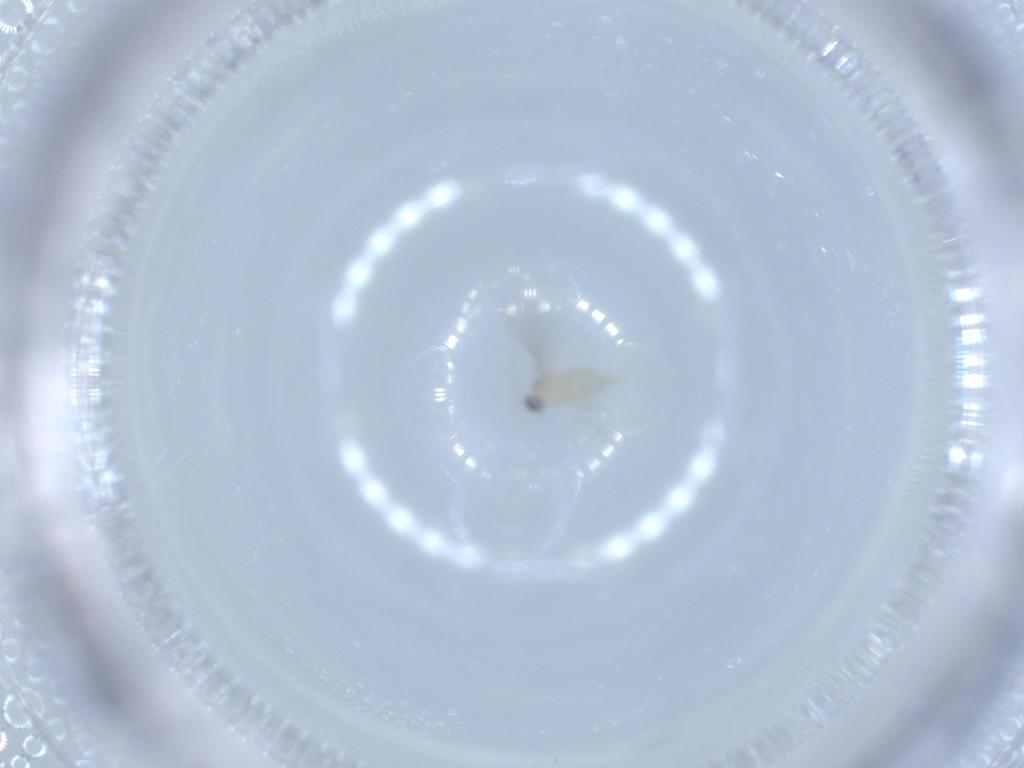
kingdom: Animalia
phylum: Arthropoda
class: Insecta
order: Diptera
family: Cecidomyiidae
